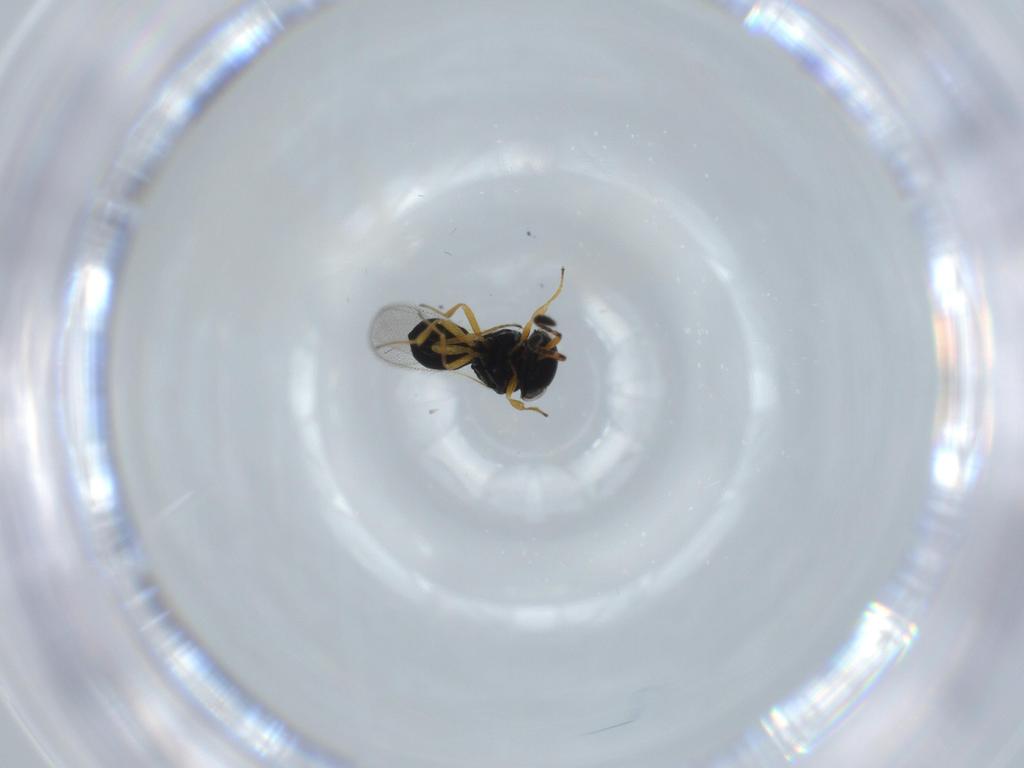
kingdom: Animalia
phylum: Arthropoda
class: Insecta
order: Hymenoptera
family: Scelionidae
